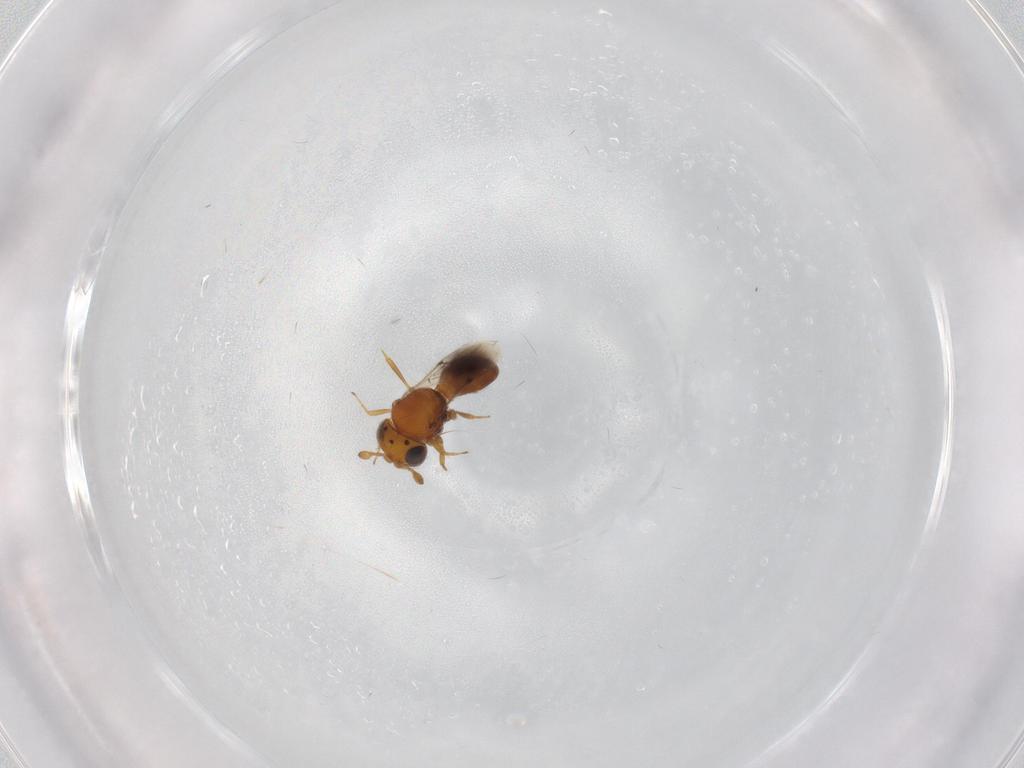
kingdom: Animalia
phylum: Arthropoda
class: Insecta
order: Hymenoptera
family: Scelionidae
